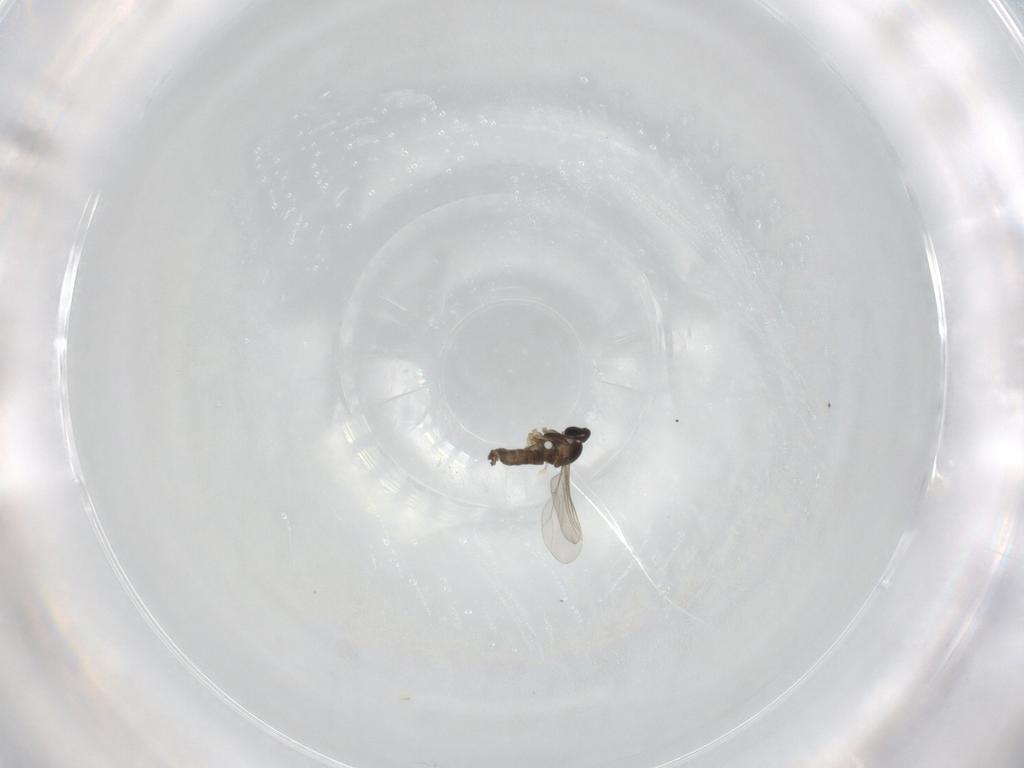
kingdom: Animalia
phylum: Arthropoda
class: Insecta
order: Diptera
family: Cecidomyiidae
